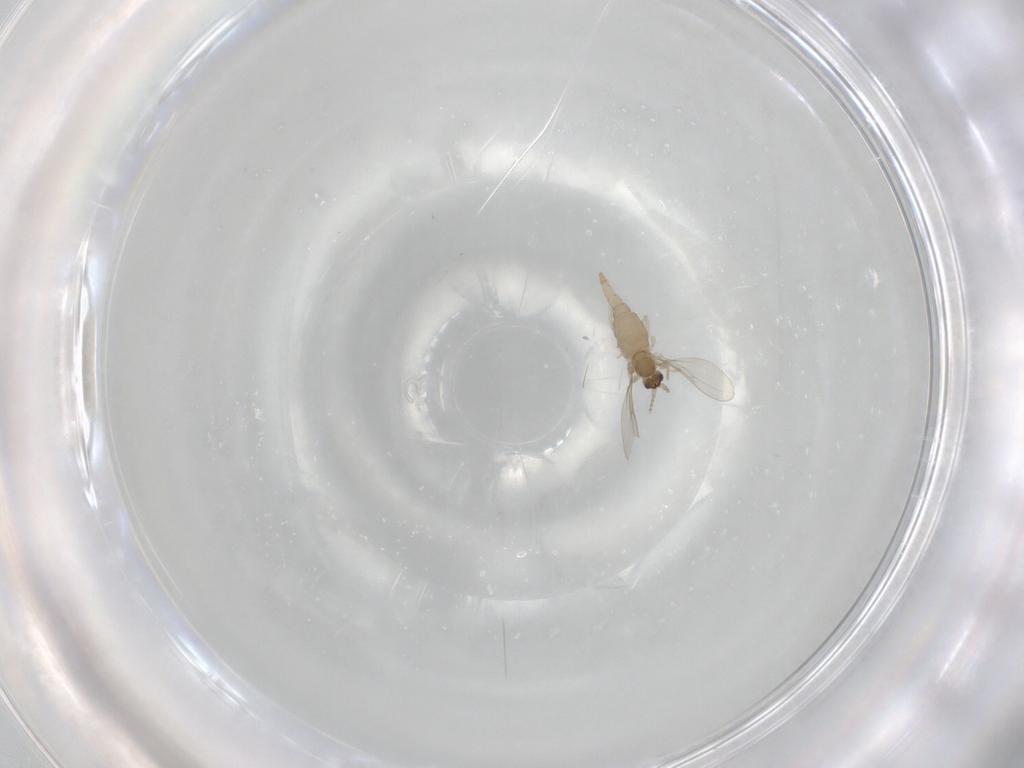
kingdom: Animalia
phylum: Arthropoda
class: Insecta
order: Diptera
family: Cecidomyiidae
